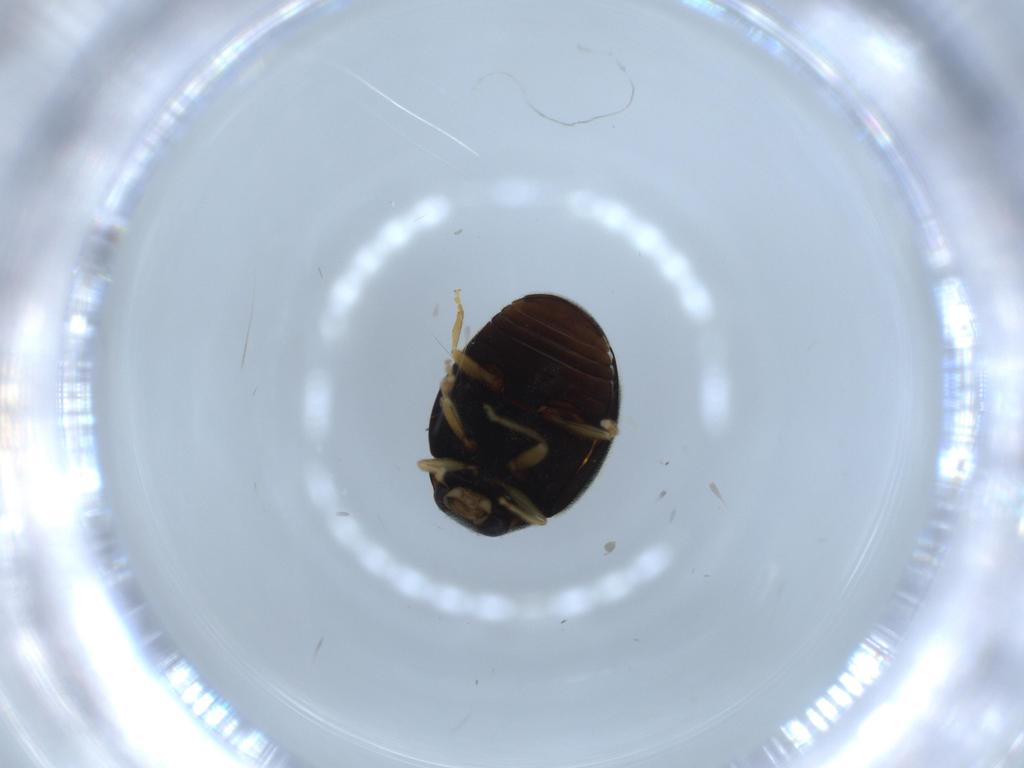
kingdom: Animalia
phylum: Arthropoda
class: Insecta
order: Coleoptera
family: Coccinellidae
